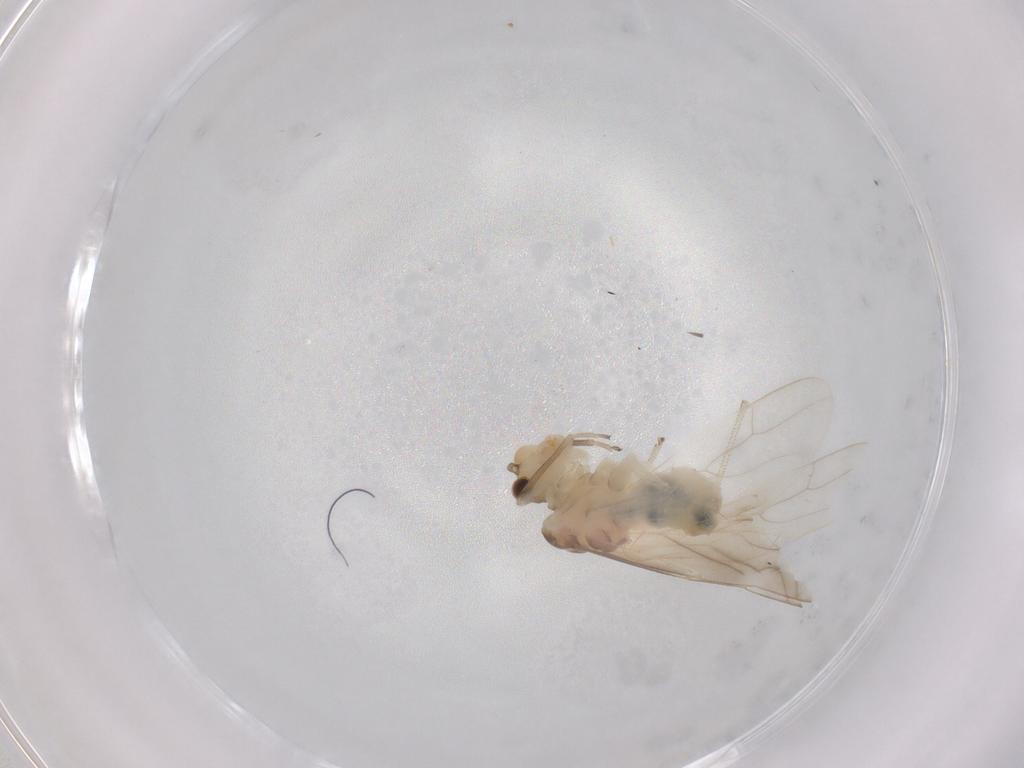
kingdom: Animalia
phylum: Arthropoda
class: Insecta
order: Psocodea
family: Caeciliusidae
